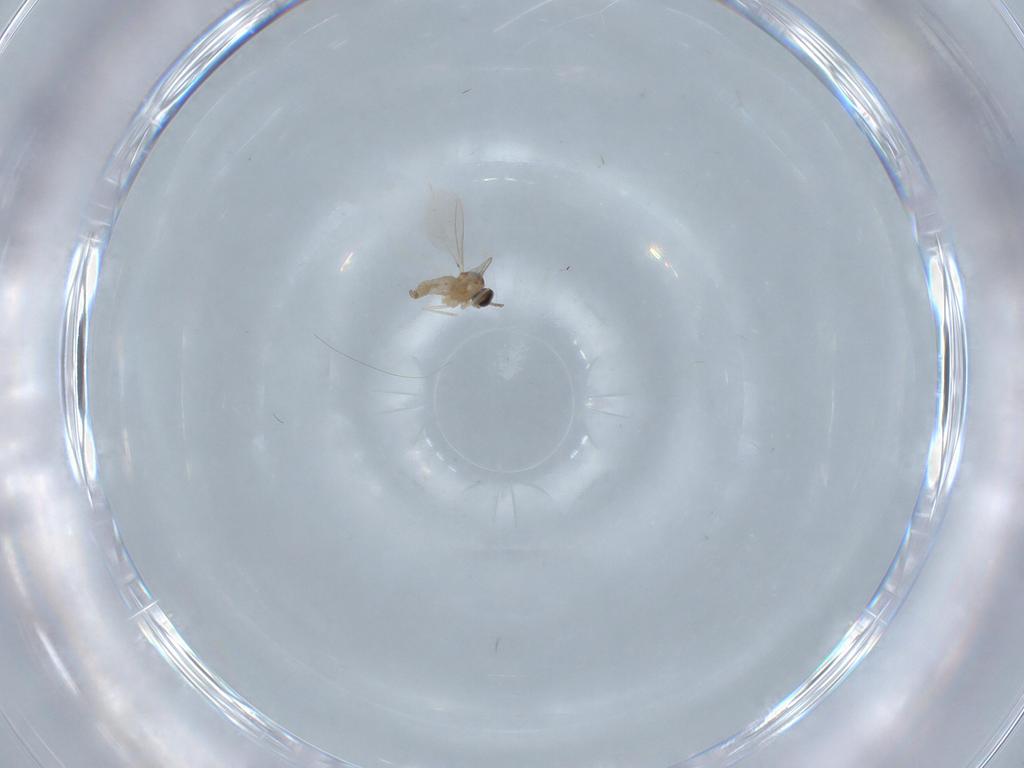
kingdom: Animalia
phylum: Arthropoda
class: Insecta
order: Diptera
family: Cecidomyiidae
